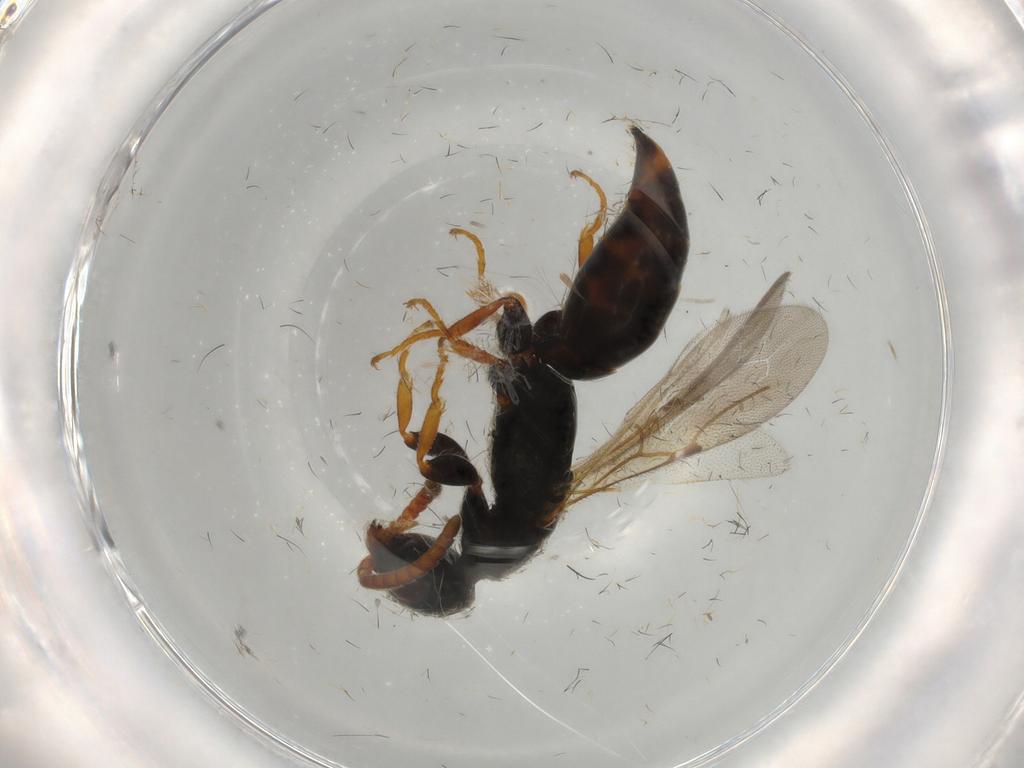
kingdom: Animalia
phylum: Arthropoda
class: Insecta
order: Hymenoptera
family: Bethylidae
